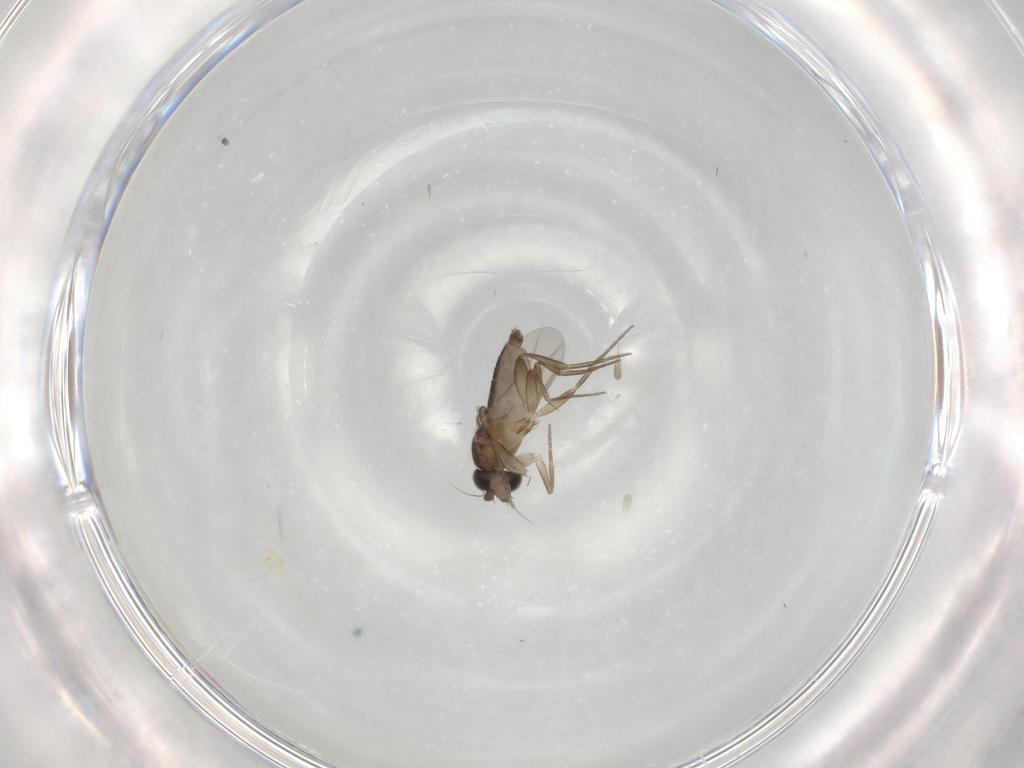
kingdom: Animalia
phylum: Arthropoda
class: Insecta
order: Diptera
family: Phoridae
